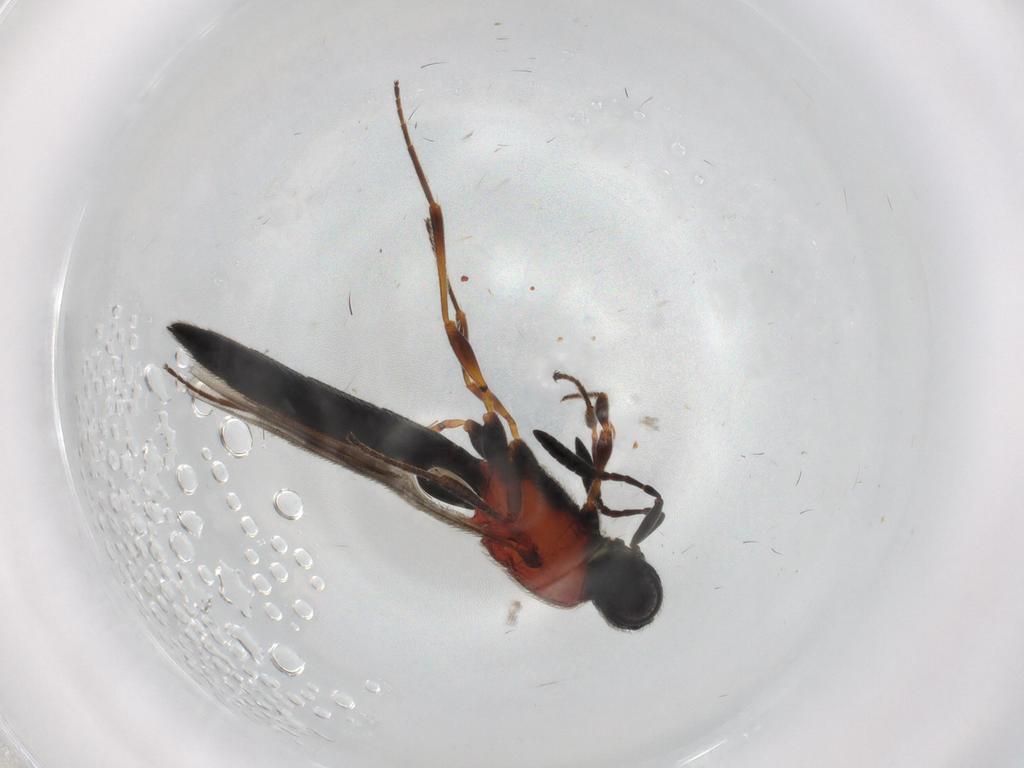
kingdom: Animalia
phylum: Arthropoda
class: Insecta
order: Hymenoptera
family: Scelionidae
